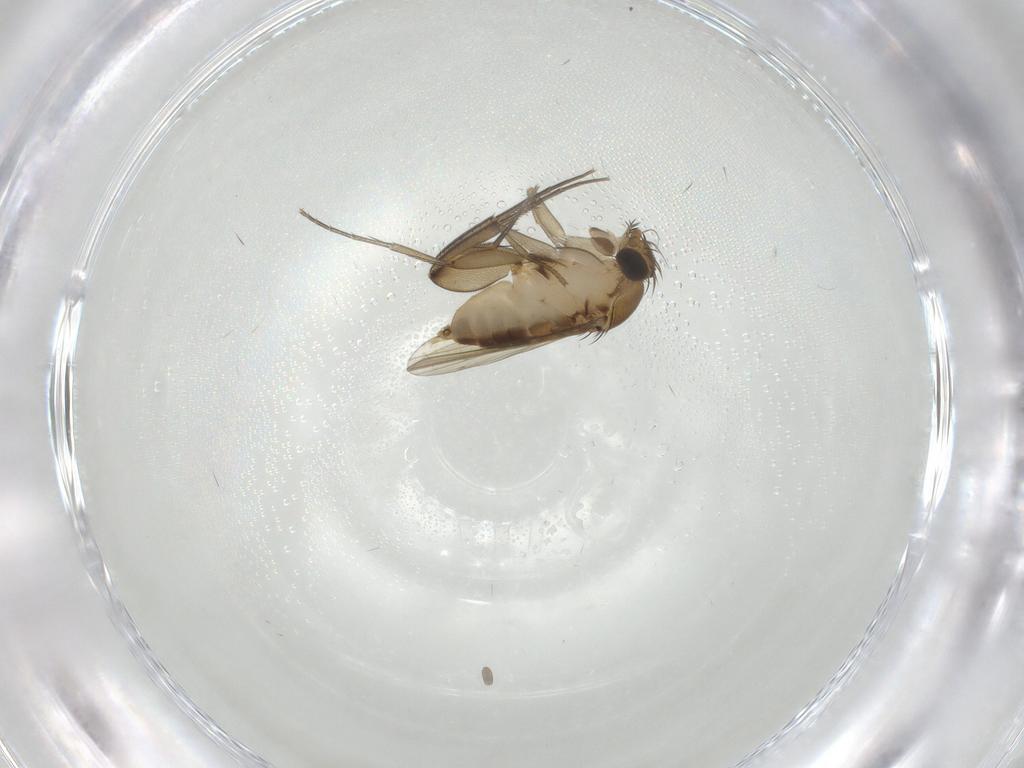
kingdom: Animalia
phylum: Arthropoda
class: Insecta
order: Diptera
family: Phoridae
